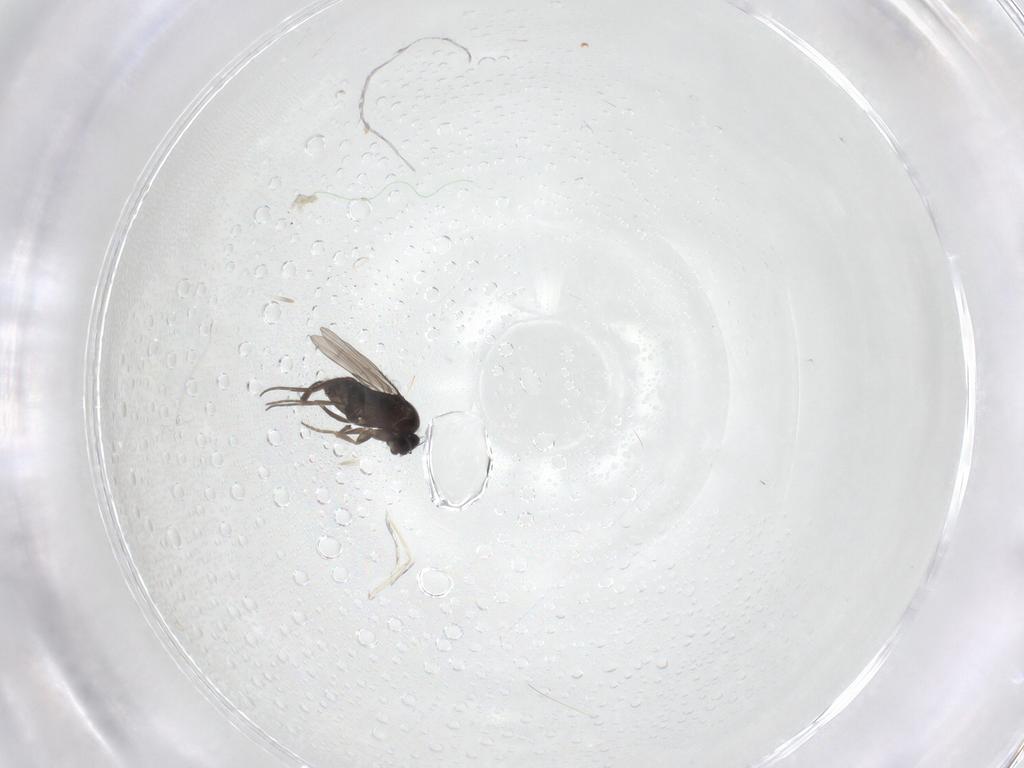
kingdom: Animalia
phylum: Arthropoda
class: Insecta
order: Diptera
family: Phoridae
